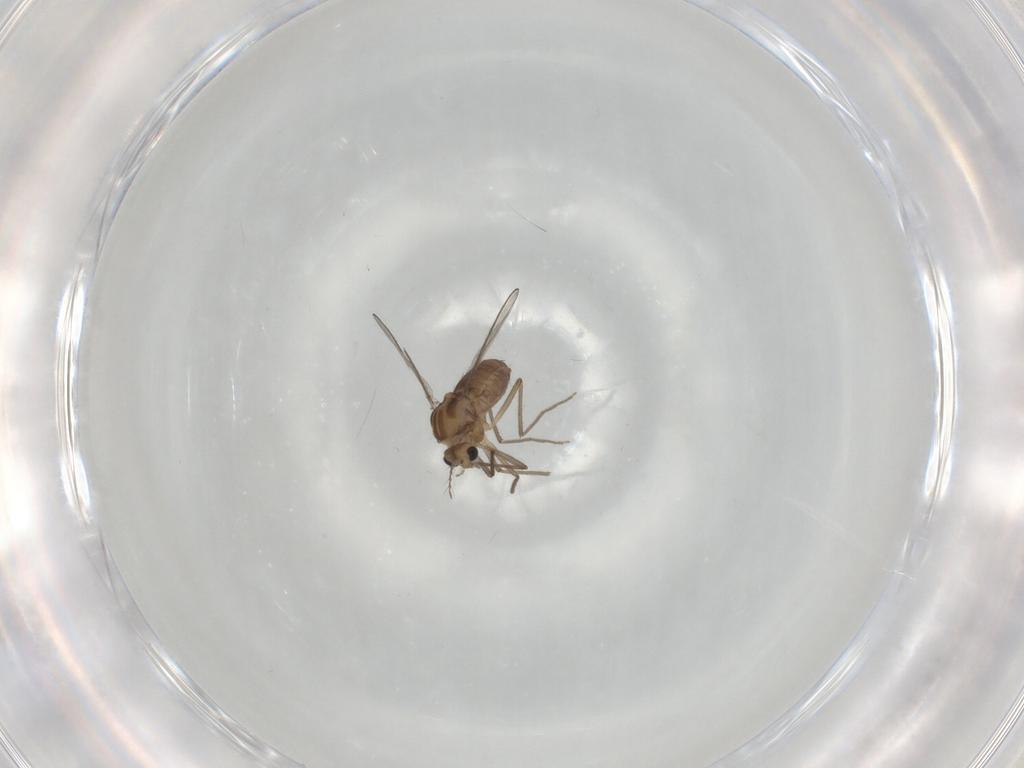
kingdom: Animalia
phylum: Arthropoda
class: Insecta
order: Diptera
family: Chironomidae
